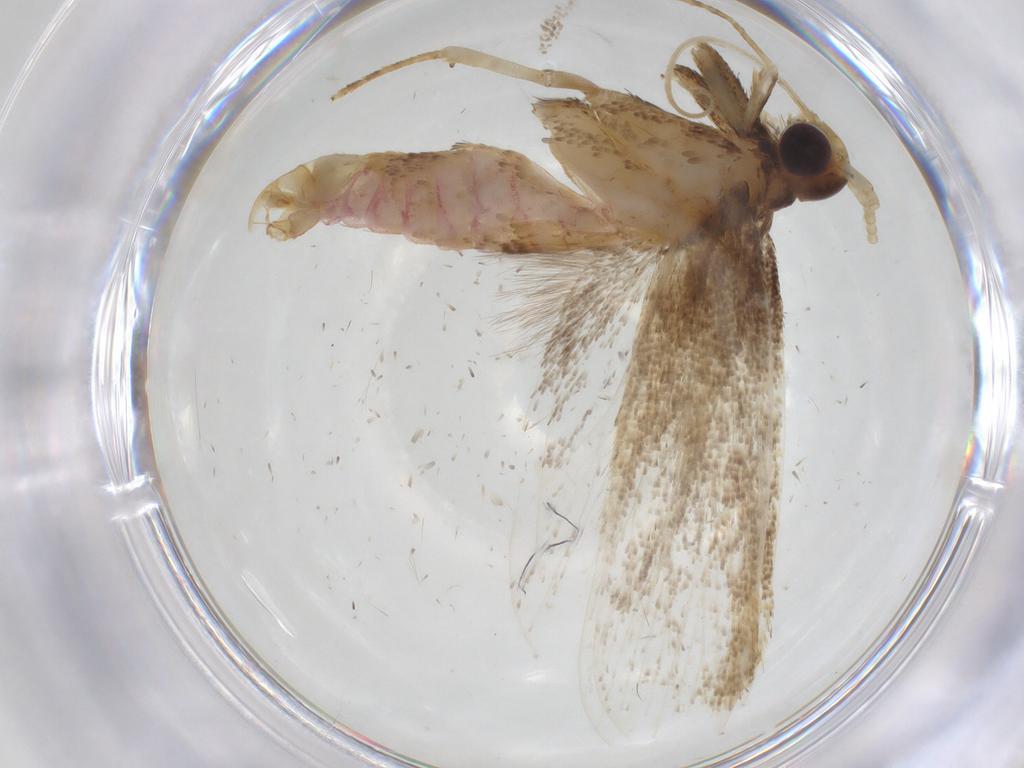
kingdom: Animalia
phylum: Arthropoda
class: Insecta
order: Lepidoptera
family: Lecithoceridae
